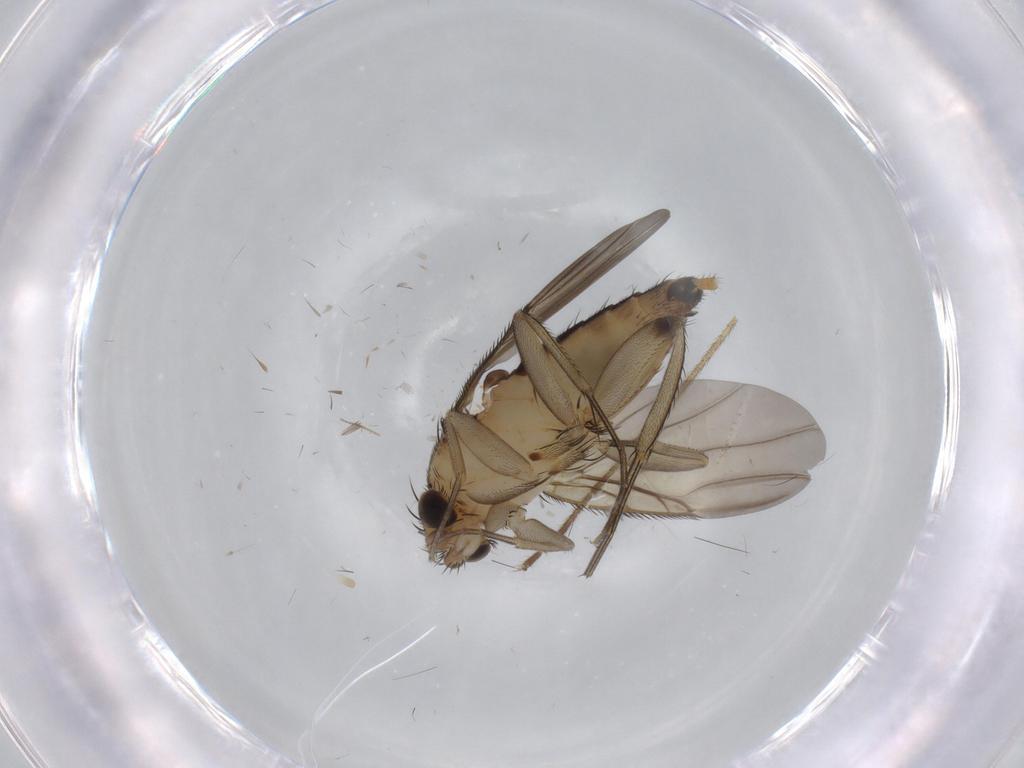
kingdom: Animalia
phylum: Arthropoda
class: Insecta
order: Diptera
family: Phoridae
